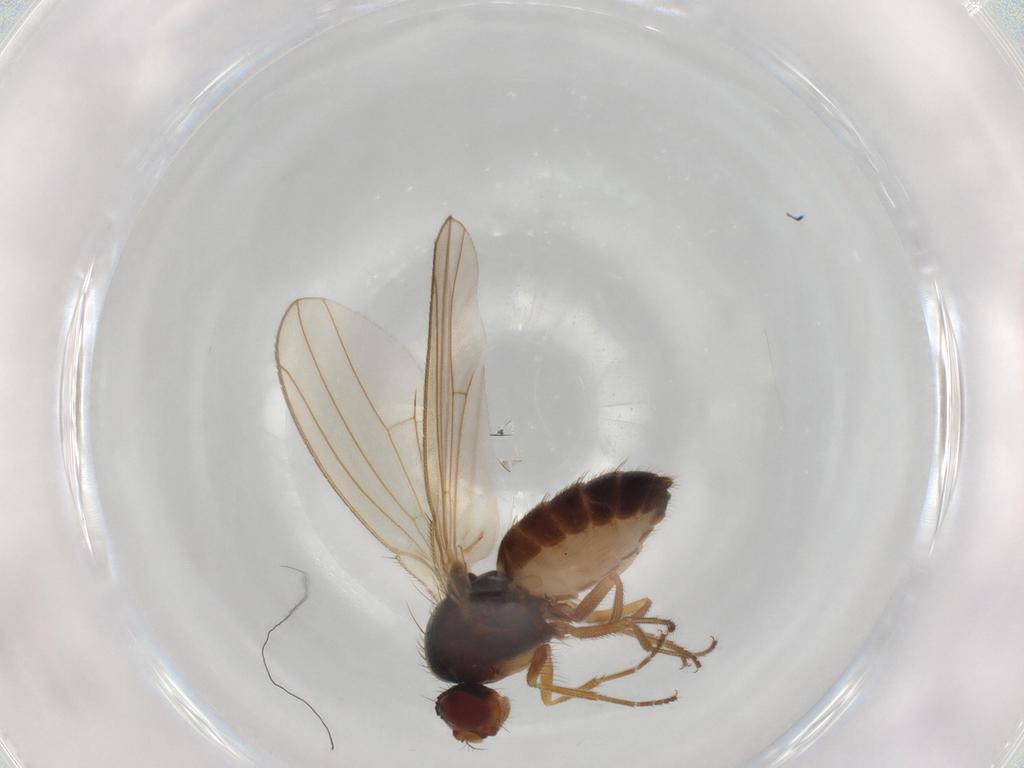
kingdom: Animalia
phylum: Arthropoda
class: Insecta
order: Diptera
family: Drosophilidae
